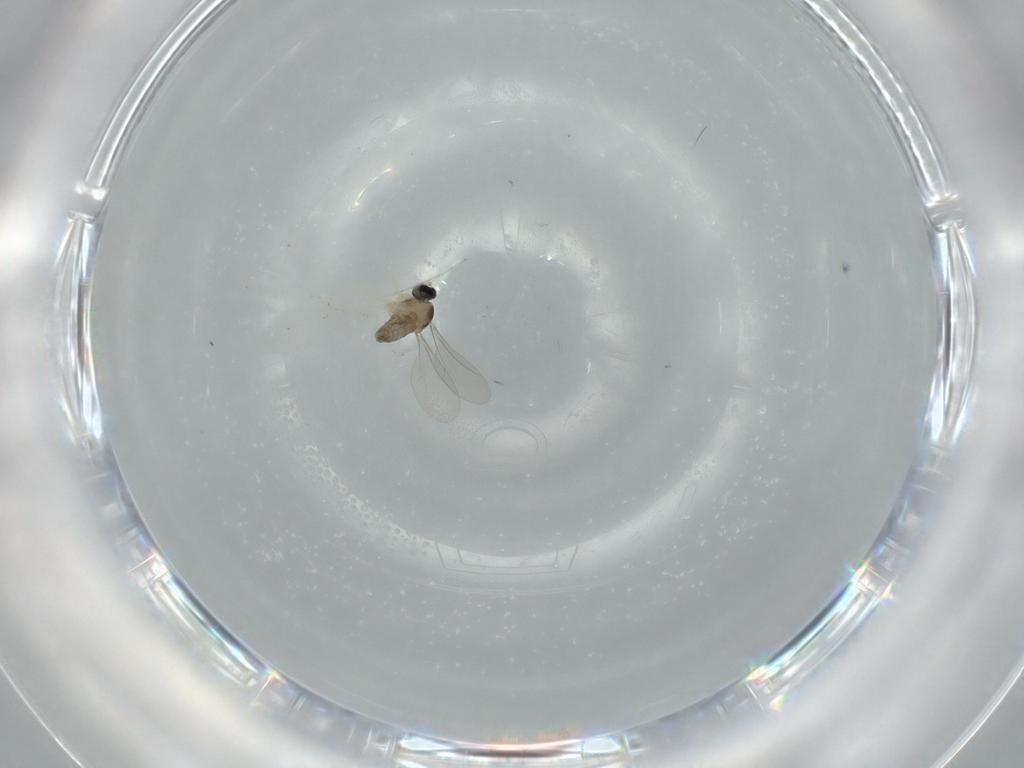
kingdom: Animalia
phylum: Arthropoda
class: Insecta
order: Diptera
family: Cecidomyiidae
